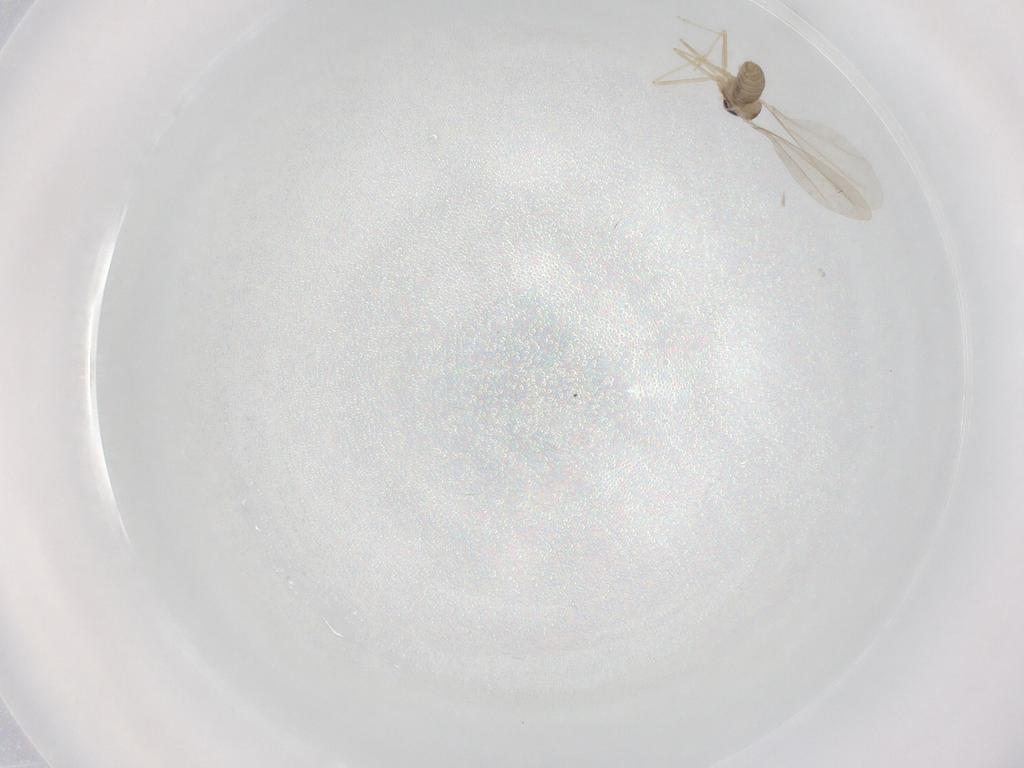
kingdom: Animalia
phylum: Arthropoda
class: Insecta
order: Diptera
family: Cecidomyiidae
